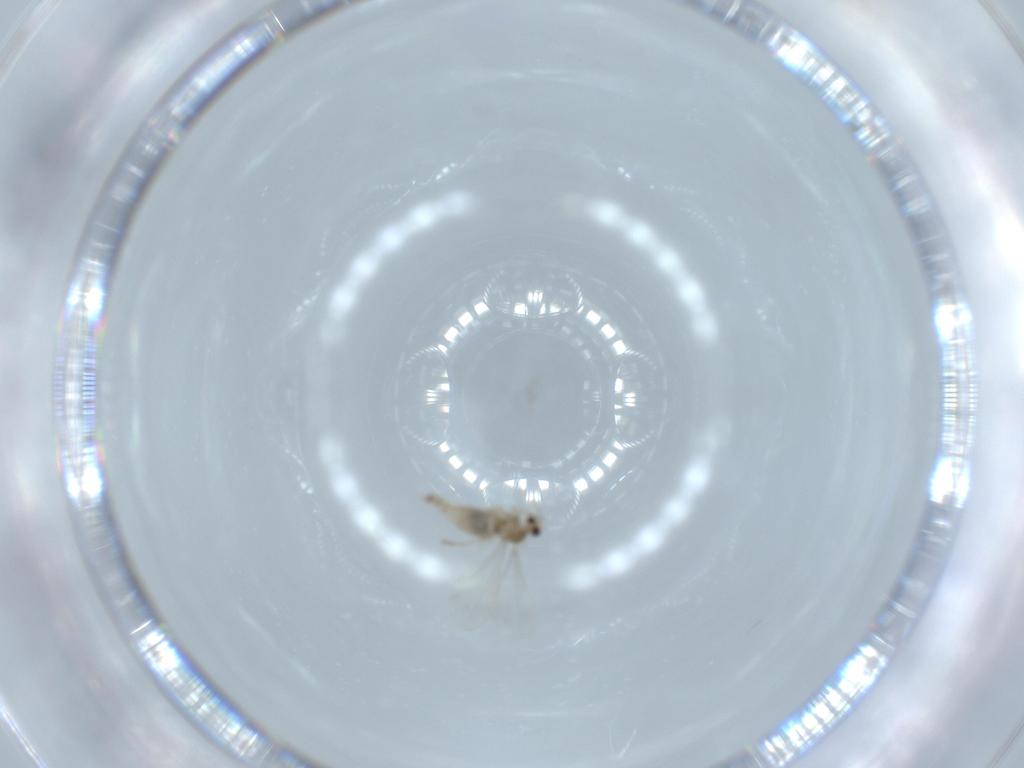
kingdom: Animalia
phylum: Arthropoda
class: Insecta
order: Diptera
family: Cecidomyiidae
